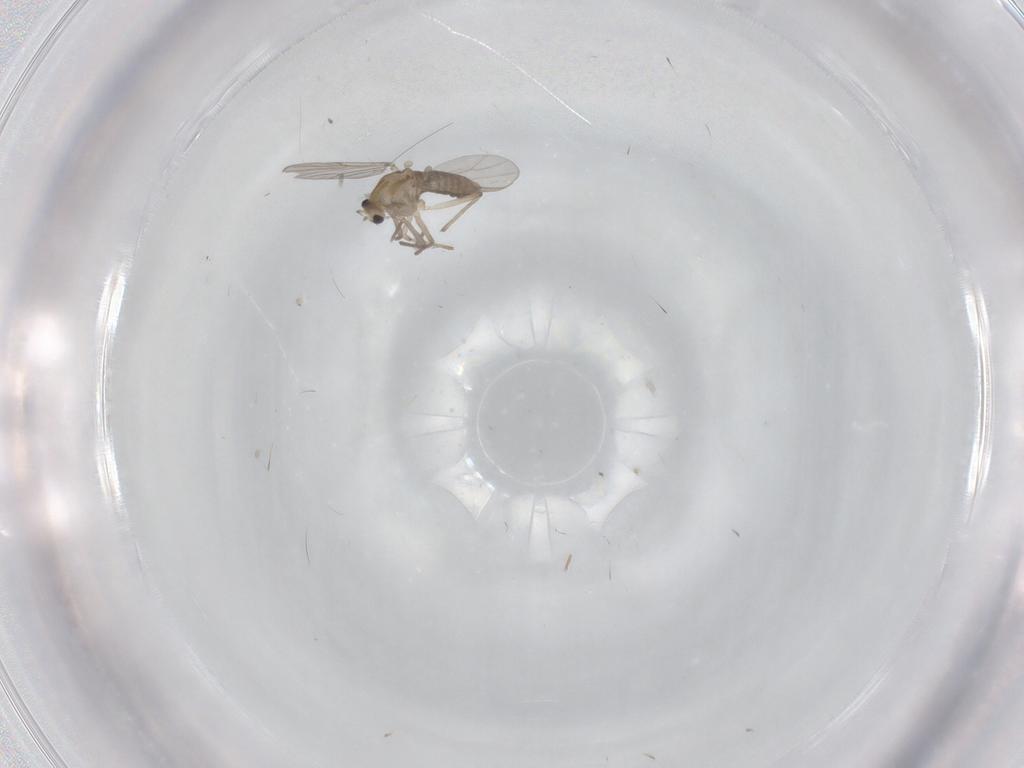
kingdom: Animalia
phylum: Arthropoda
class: Insecta
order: Diptera
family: Chironomidae
